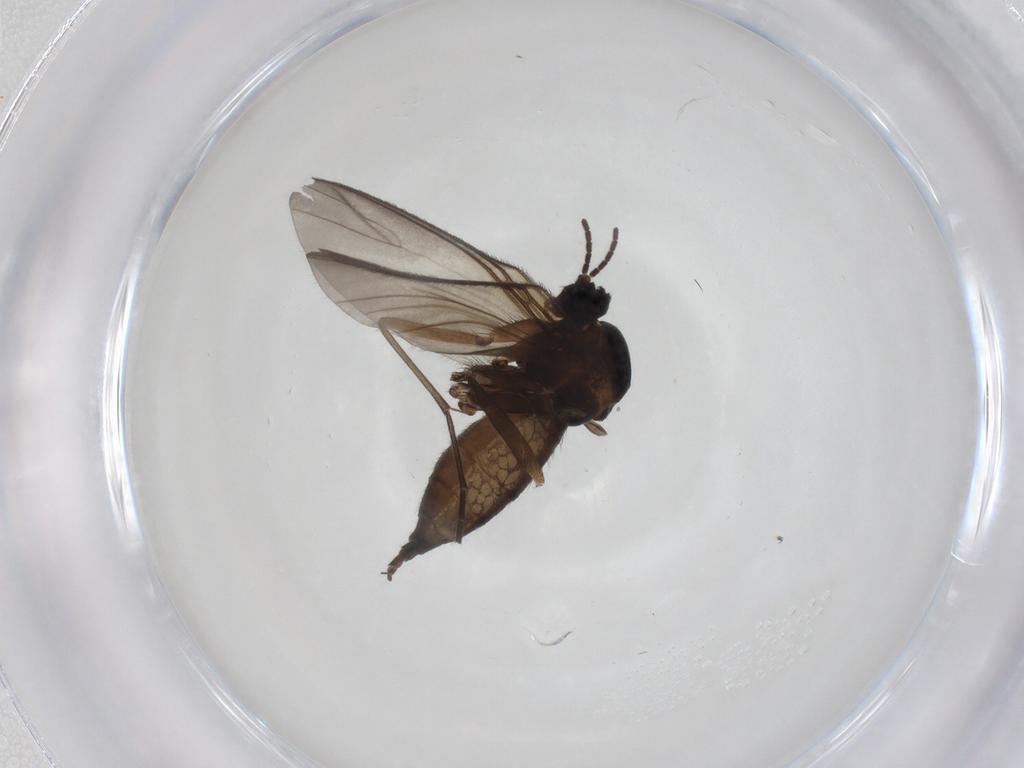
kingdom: Animalia
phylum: Arthropoda
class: Insecta
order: Diptera
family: Sciaridae
